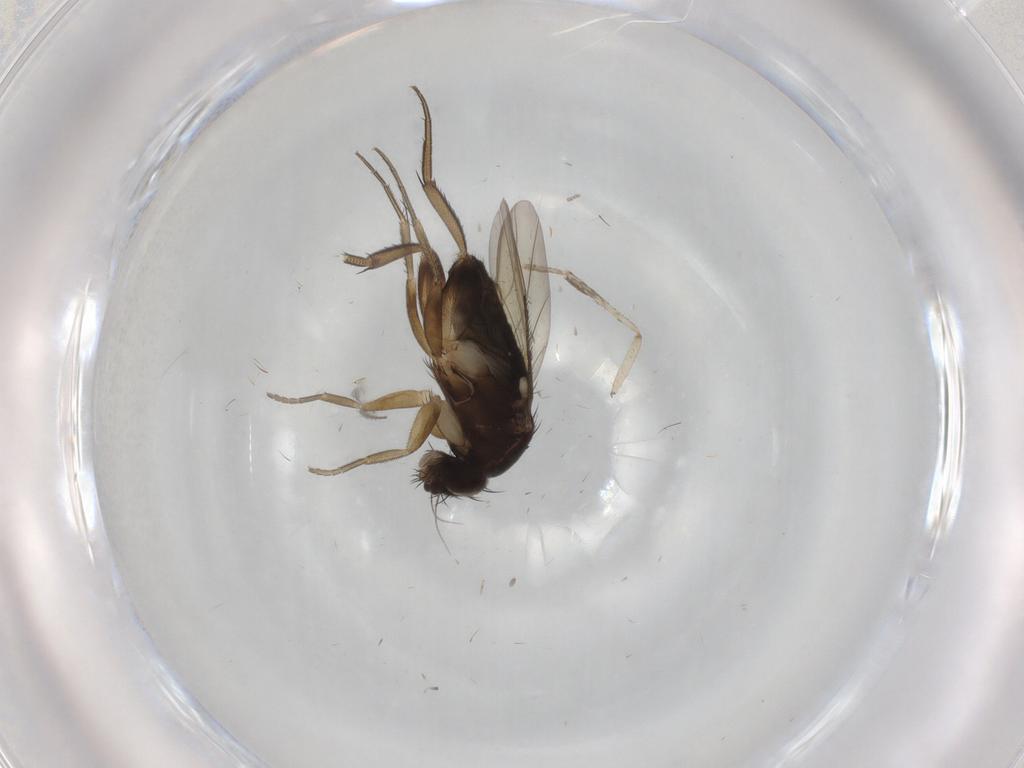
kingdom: Animalia
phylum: Arthropoda
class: Insecta
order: Diptera
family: Phoridae
